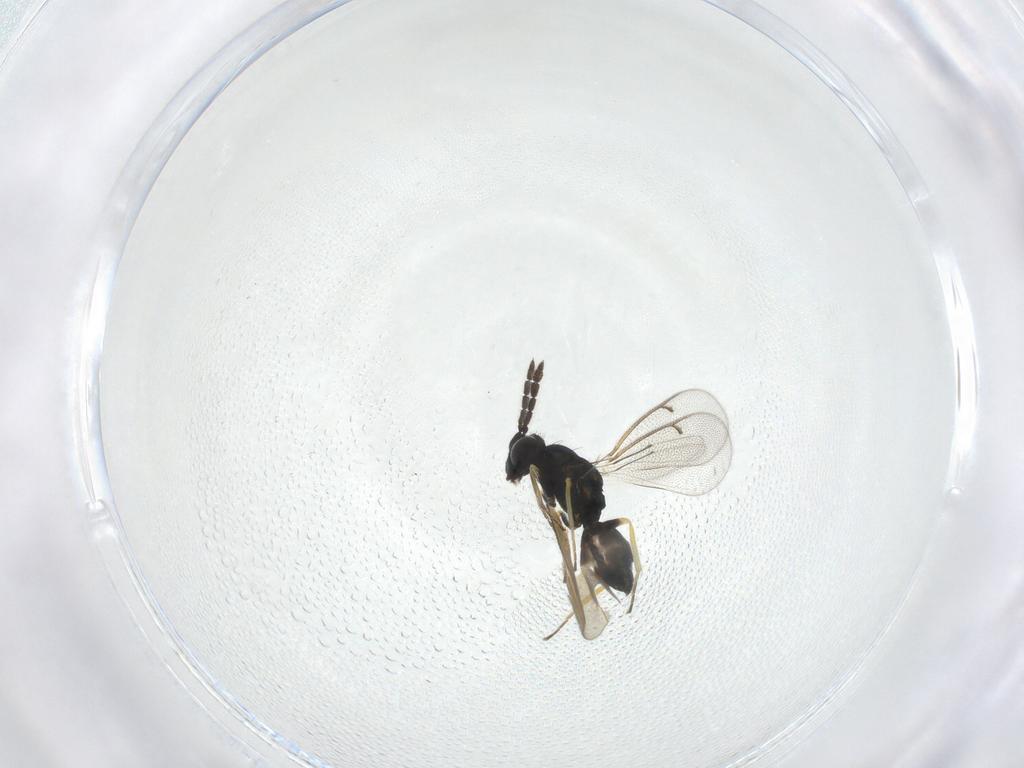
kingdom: Animalia
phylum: Arthropoda
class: Insecta
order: Hymenoptera
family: Eulophidae
